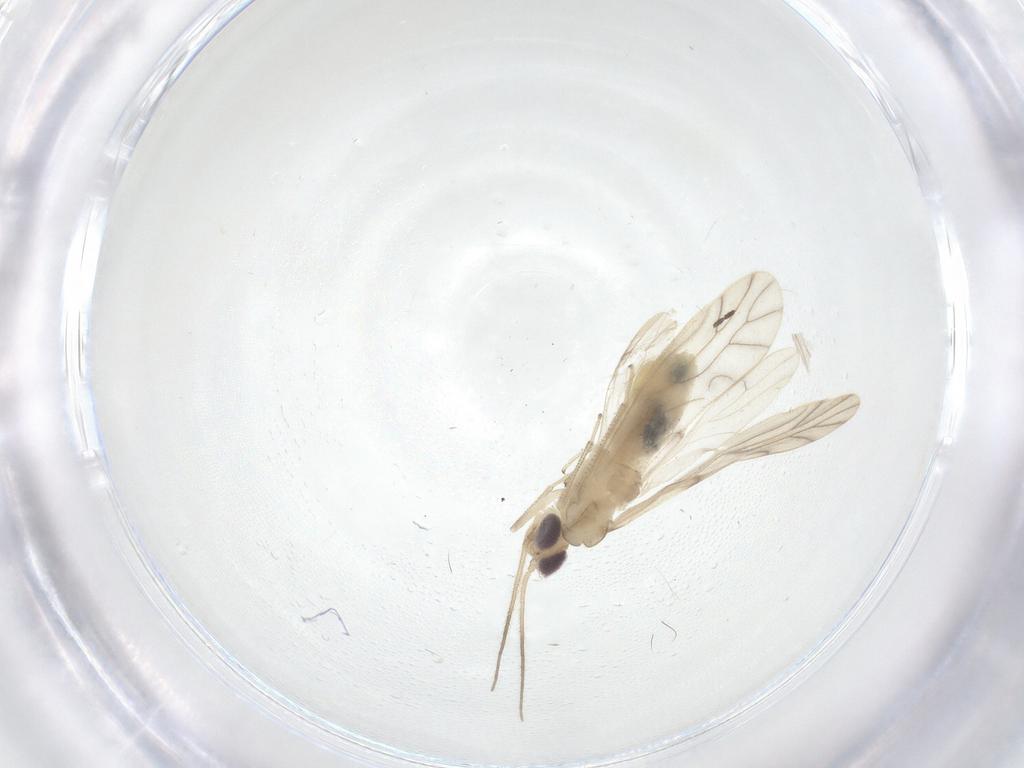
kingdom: Animalia
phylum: Arthropoda
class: Insecta
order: Psocodea
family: Caeciliusidae
